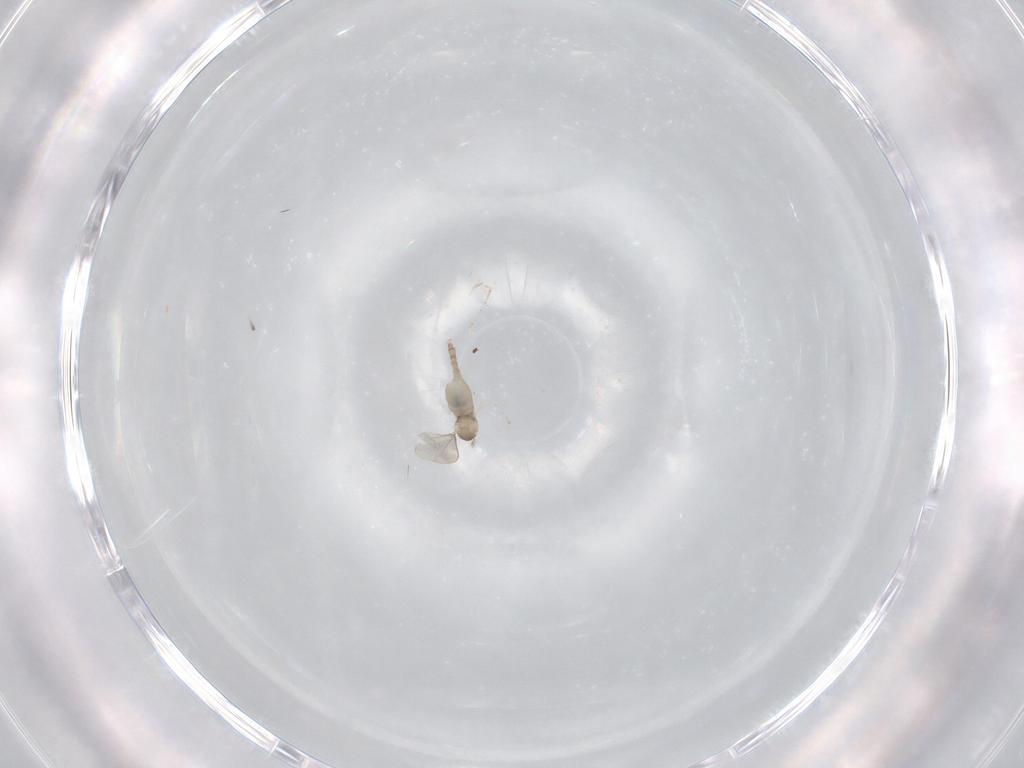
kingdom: Animalia
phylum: Arthropoda
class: Insecta
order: Diptera
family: Cecidomyiidae
